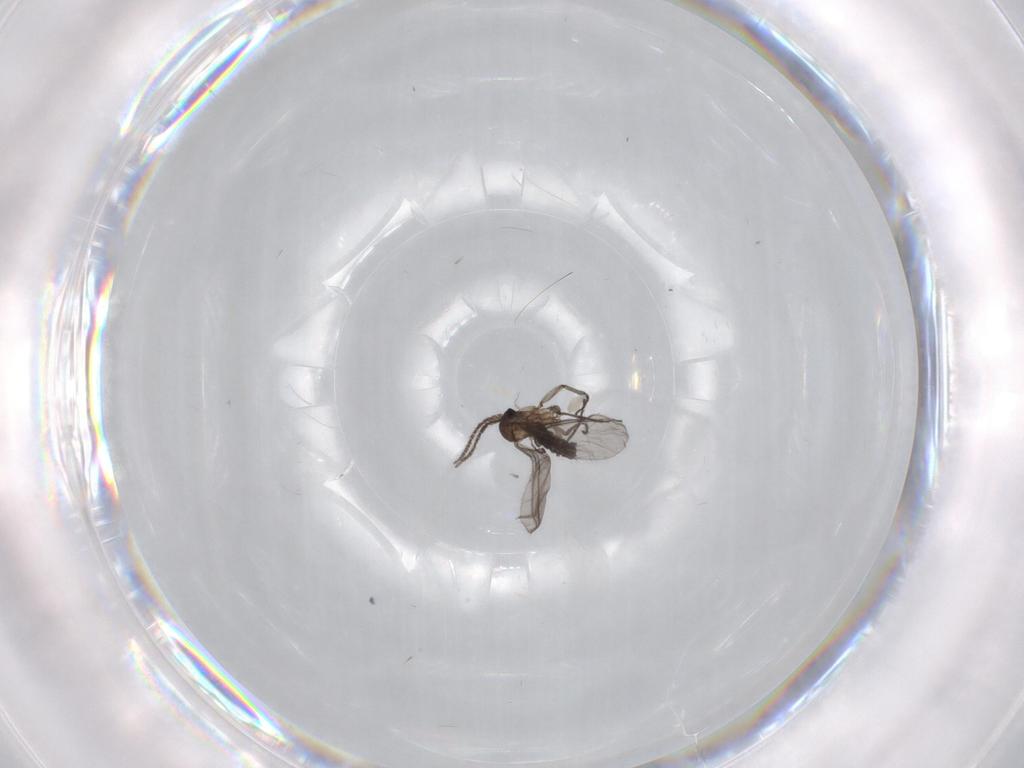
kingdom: Animalia
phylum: Arthropoda
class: Insecta
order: Diptera
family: Sciaridae
